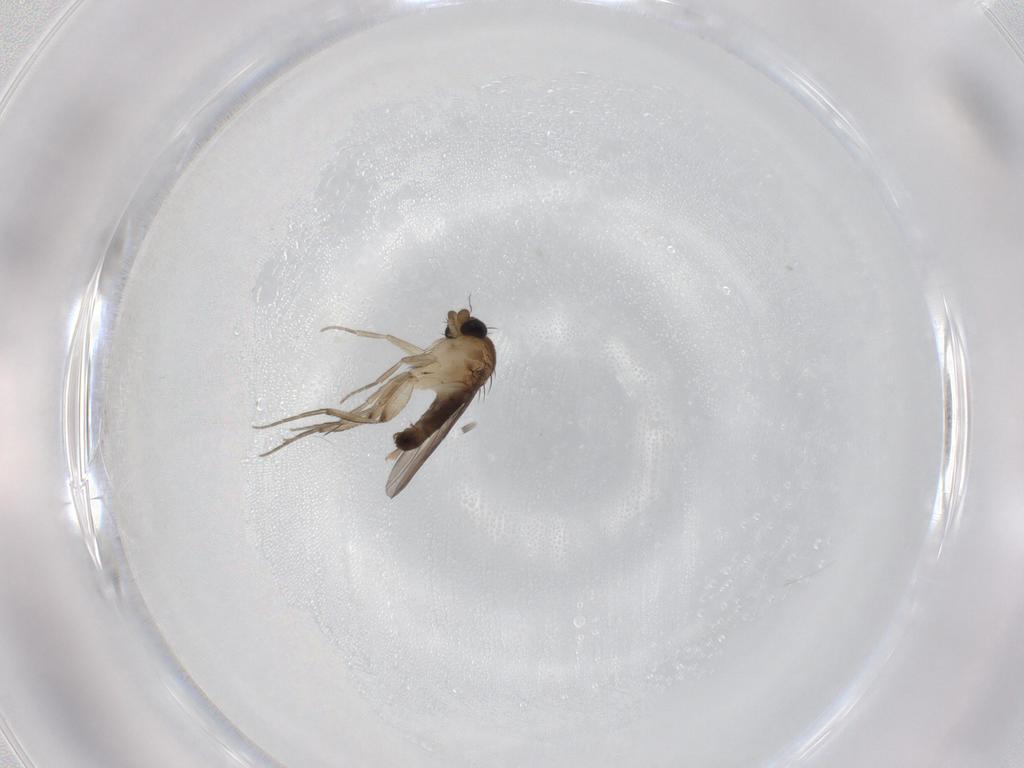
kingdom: Animalia
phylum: Arthropoda
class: Insecta
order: Diptera
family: Phoridae
